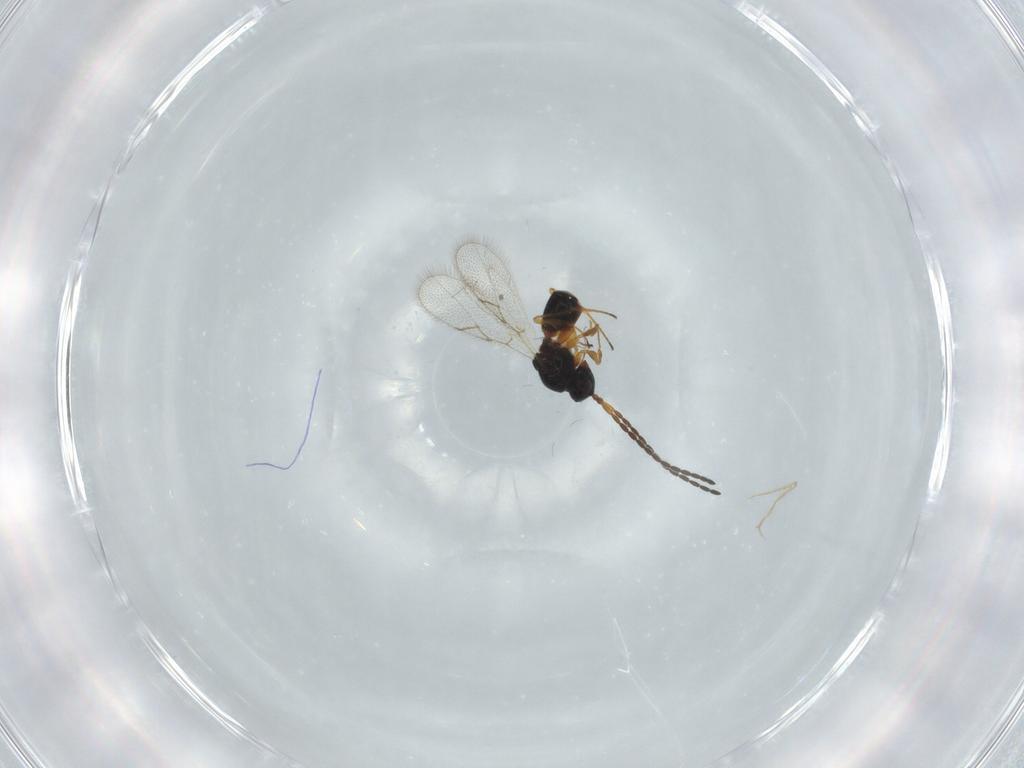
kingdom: Animalia
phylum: Arthropoda
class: Insecta
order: Hymenoptera
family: Figitidae
